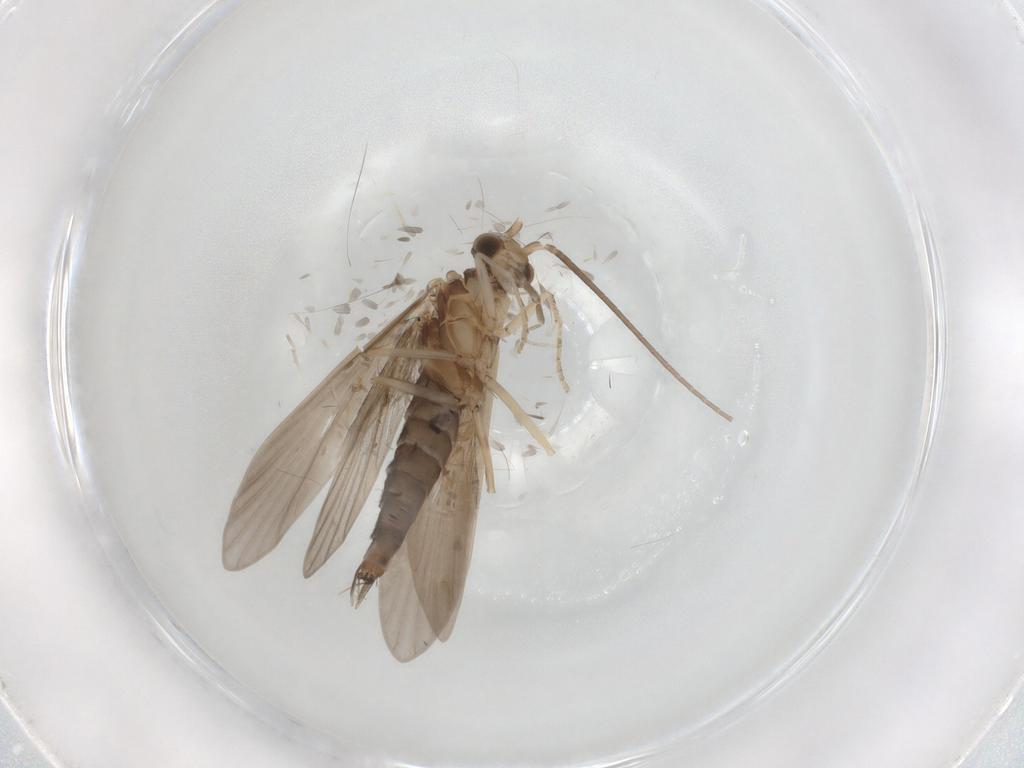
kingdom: Animalia
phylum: Arthropoda
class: Insecta
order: Trichoptera
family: Xiphocentronidae
